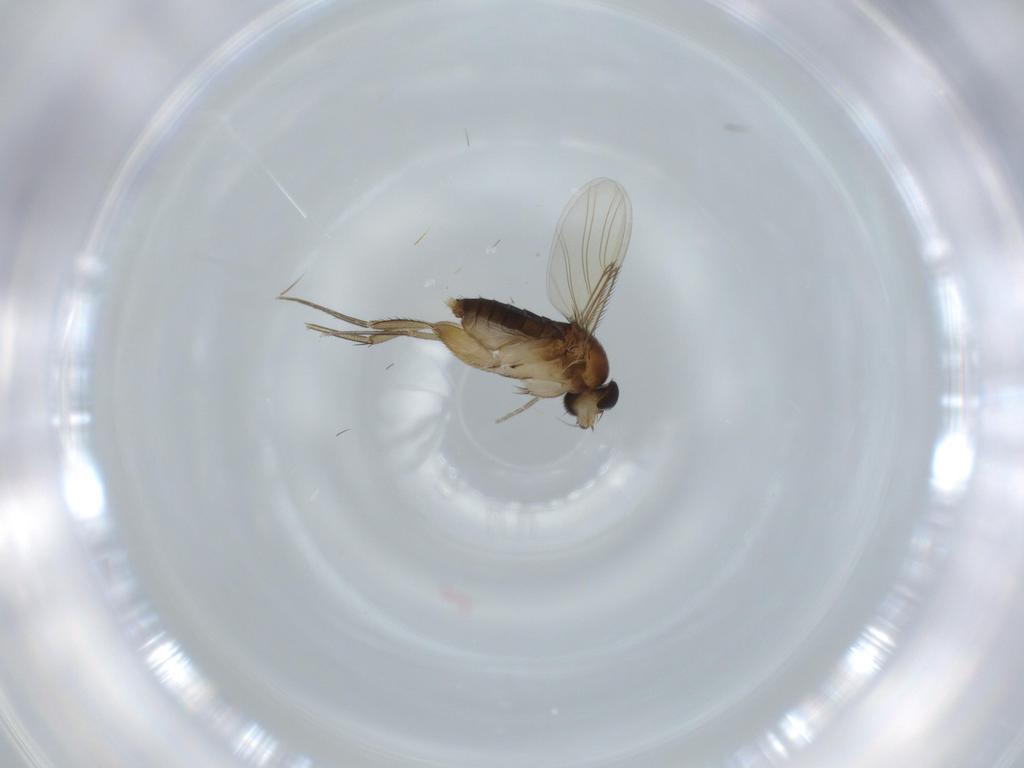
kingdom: Animalia
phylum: Arthropoda
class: Insecta
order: Diptera
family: Phoridae
